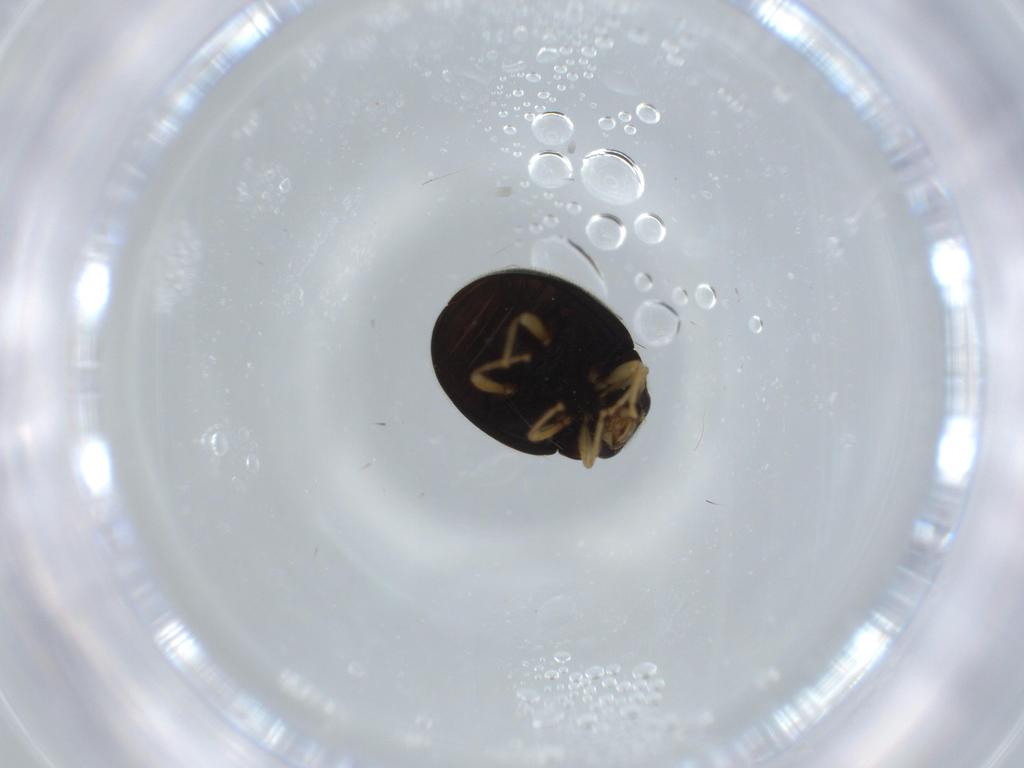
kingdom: Animalia
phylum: Arthropoda
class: Insecta
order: Coleoptera
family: Coccinellidae
